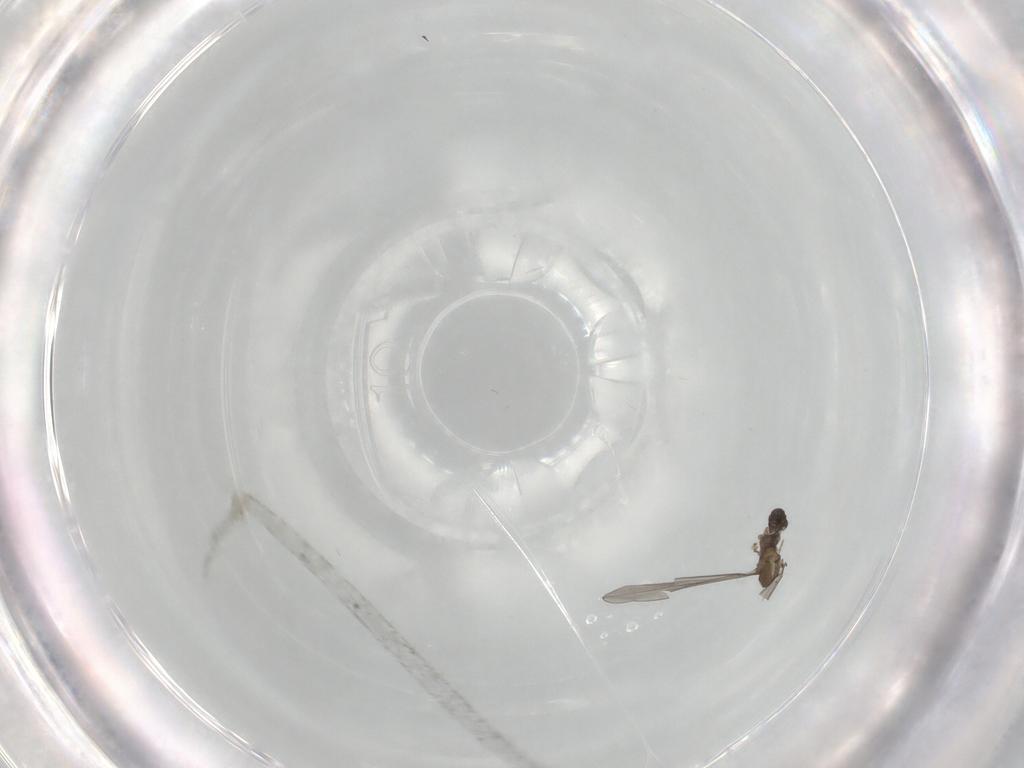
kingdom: Animalia
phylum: Arthropoda
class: Insecta
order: Diptera
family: Cecidomyiidae
